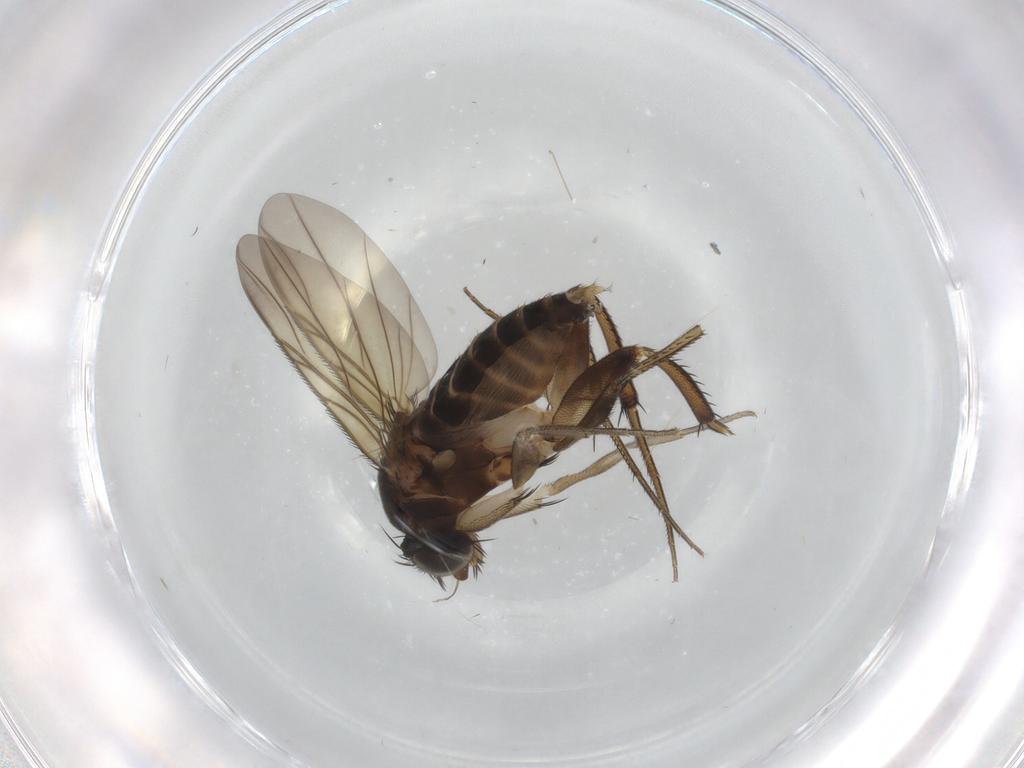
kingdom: Animalia
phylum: Arthropoda
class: Insecta
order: Diptera
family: Phoridae
